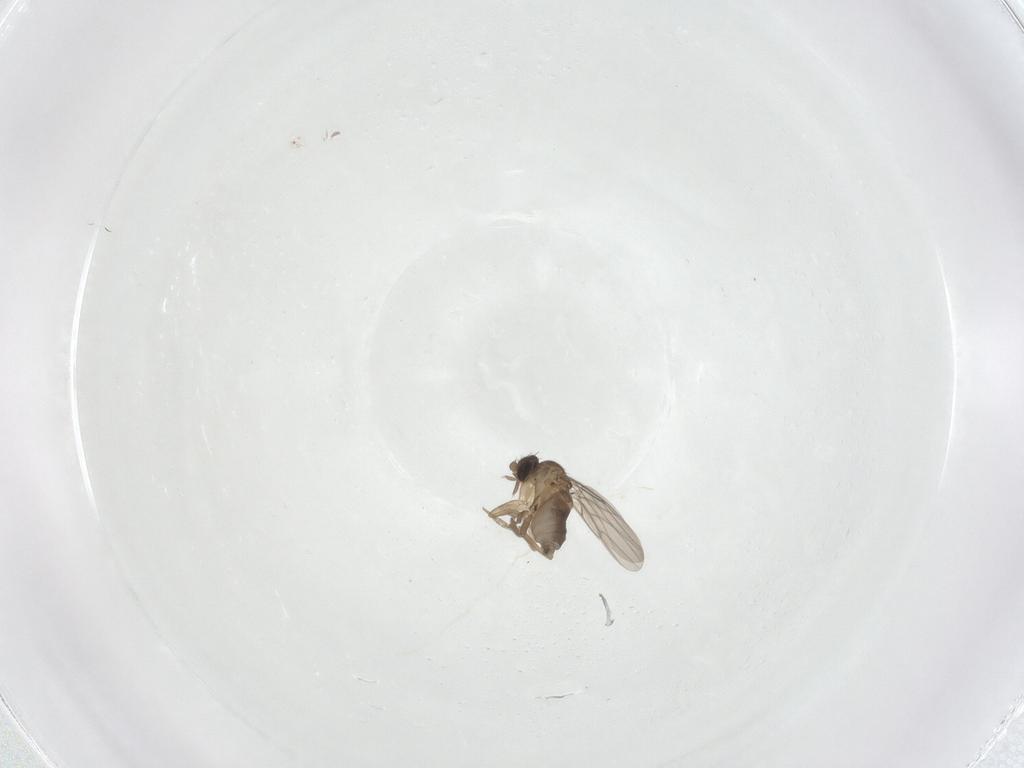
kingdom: Animalia
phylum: Arthropoda
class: Insecta
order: Diptera
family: Phoridae
